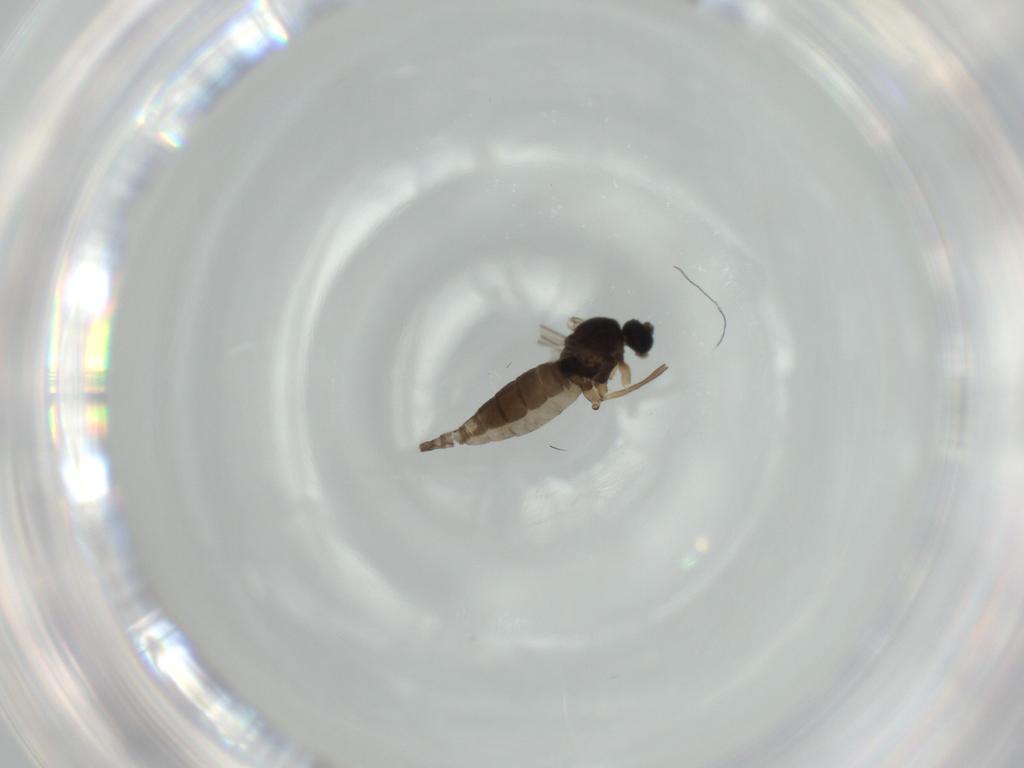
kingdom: Animalia
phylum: Arthropoda
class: Insecta
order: Diptera
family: Sciaridae
